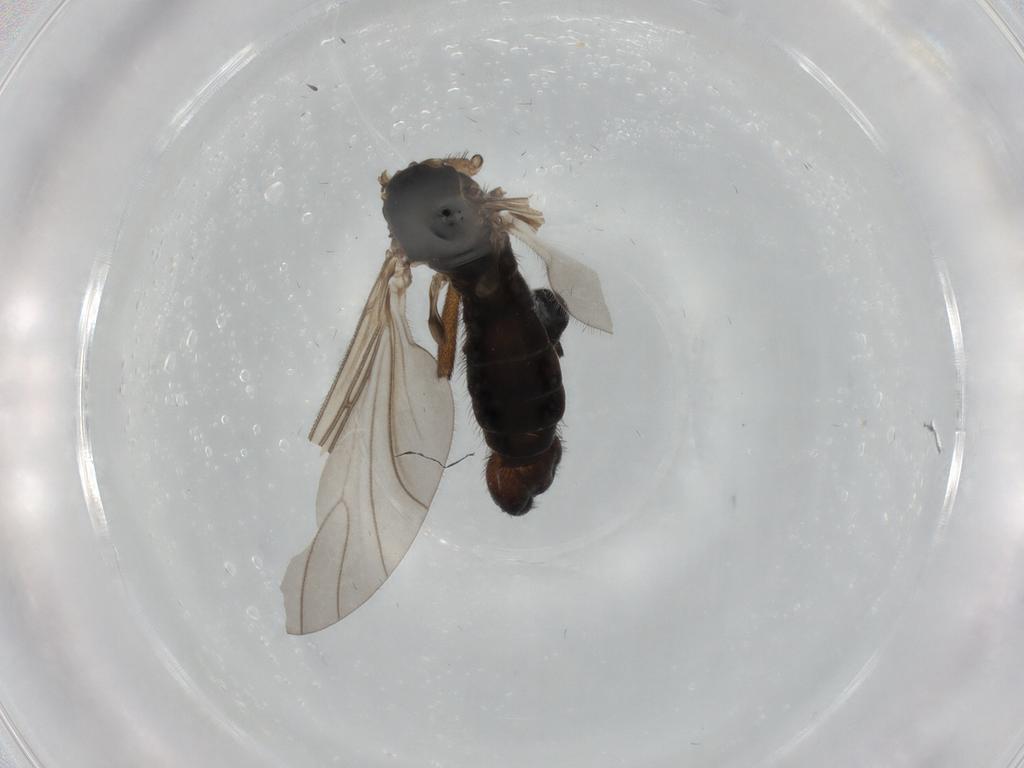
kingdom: Animalia
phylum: Arthropoda
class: Insecta
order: Diptera
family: Sciaridae
